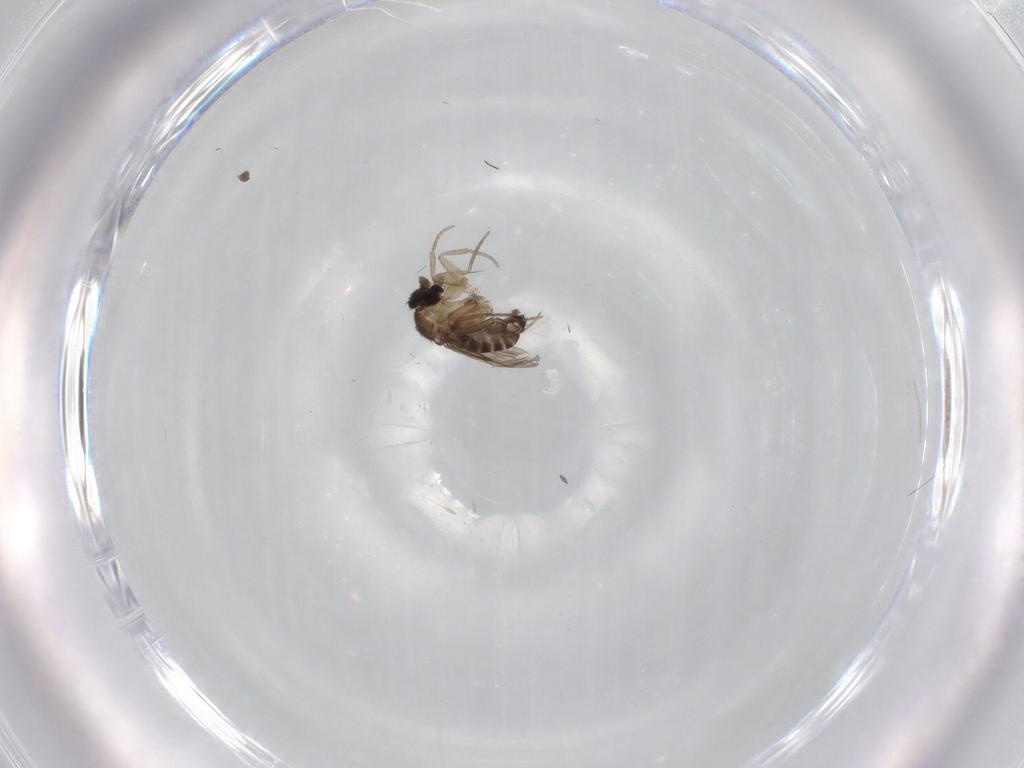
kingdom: Animalia
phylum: Arthropoda
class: Insecta
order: Diptera
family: Phoridae
